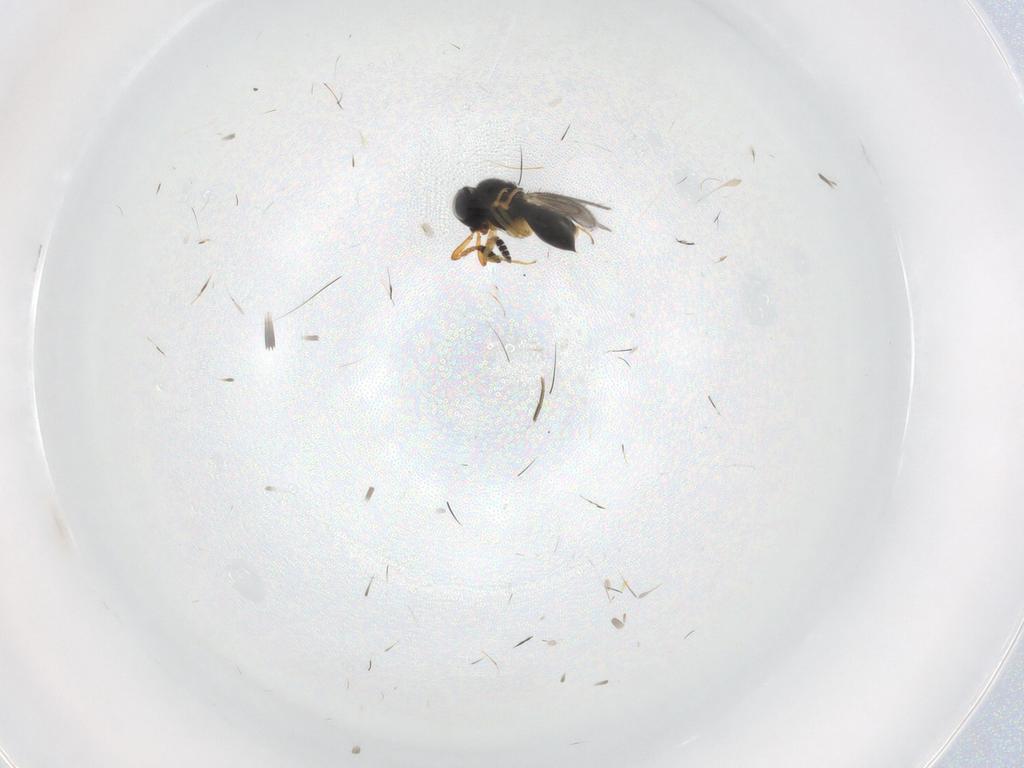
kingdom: Animalia
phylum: Arthropoda
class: Insecta
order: Hymenoptera
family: Scelionidae
